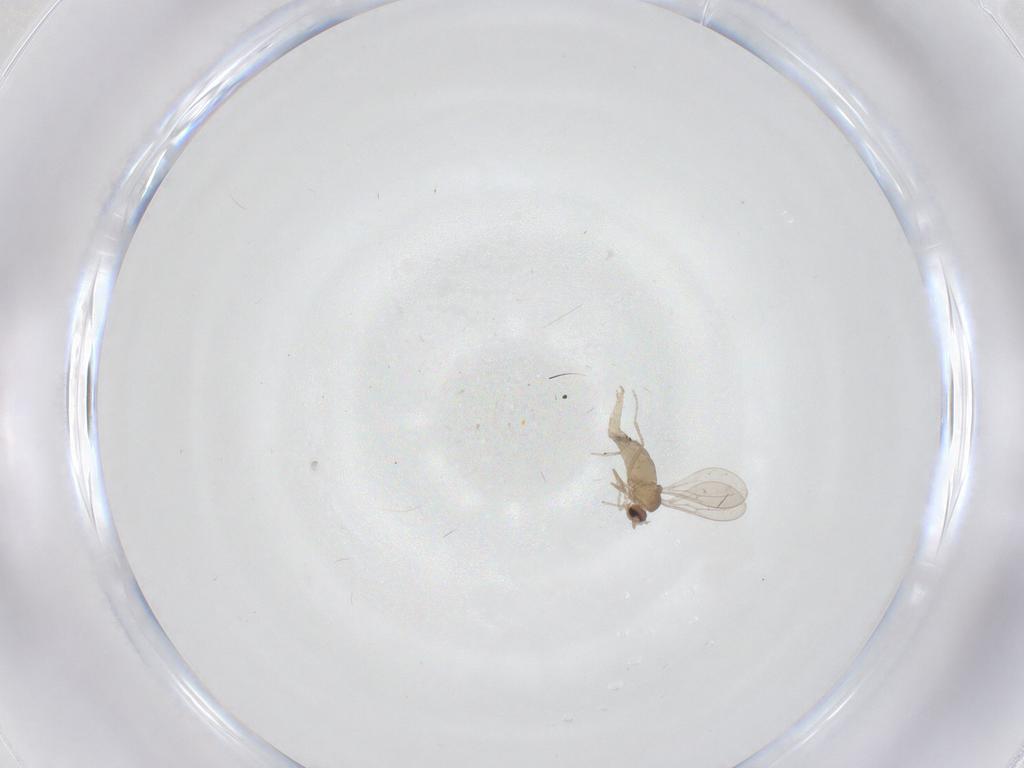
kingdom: Animalia
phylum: Arthropoda
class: Insecta
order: Diptera
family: Cecidomyiidae
